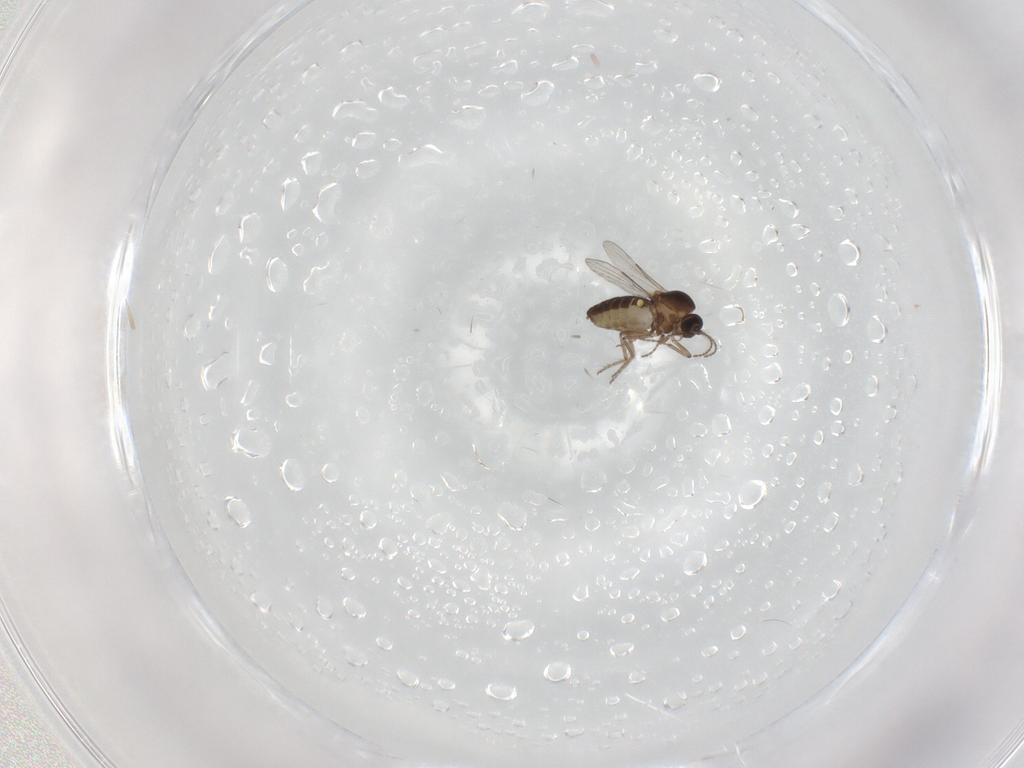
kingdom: Animalia
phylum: Arthropoda
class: Insecta
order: Diptera
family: Ceratopogonidae
